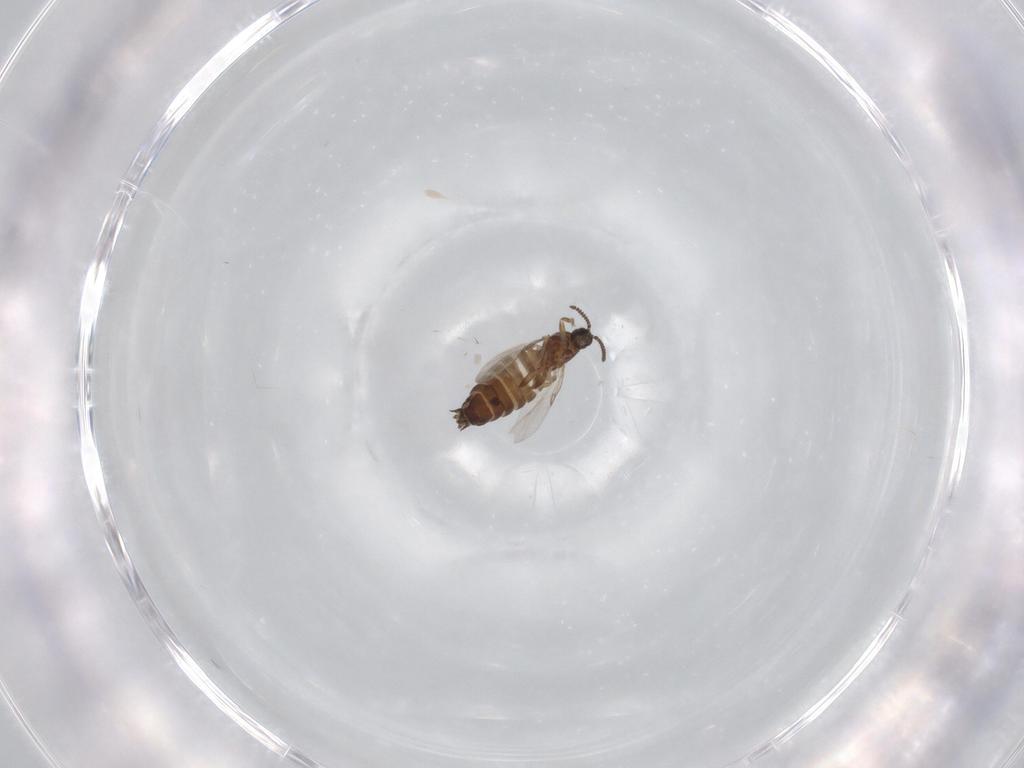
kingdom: Animalia
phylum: Arthropoda
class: Insecta
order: Diptera
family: Scatopsidae
